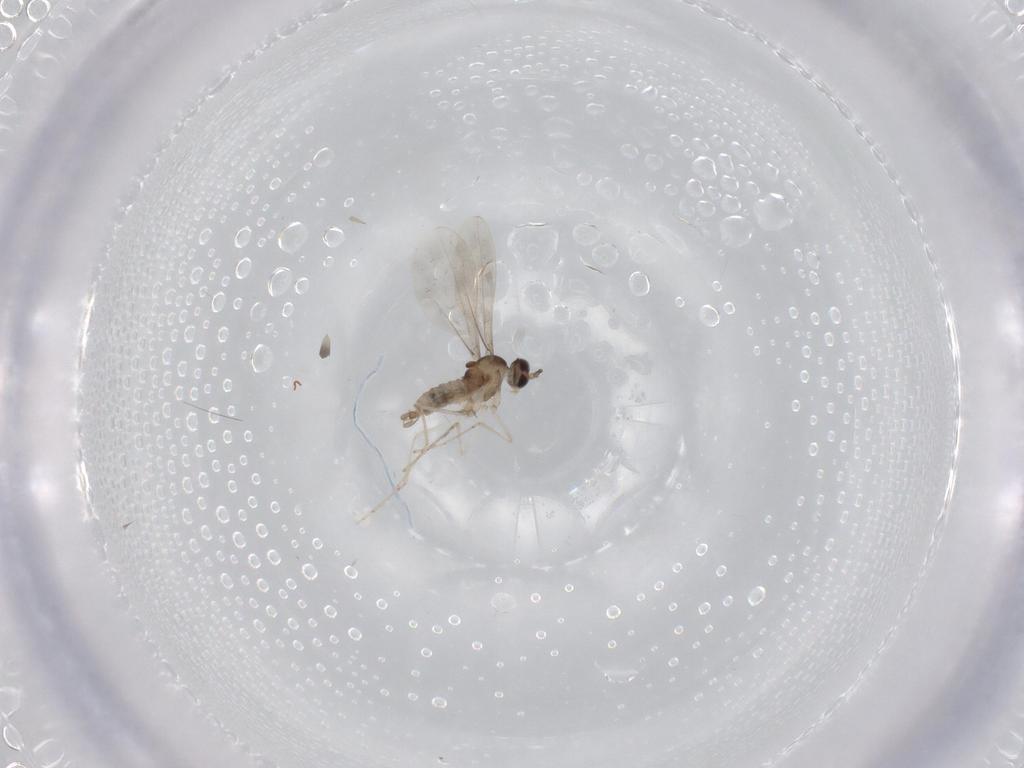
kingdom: Animalia
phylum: Arthropoda
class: Insecta
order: Diptera
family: Cecidomyiidae
